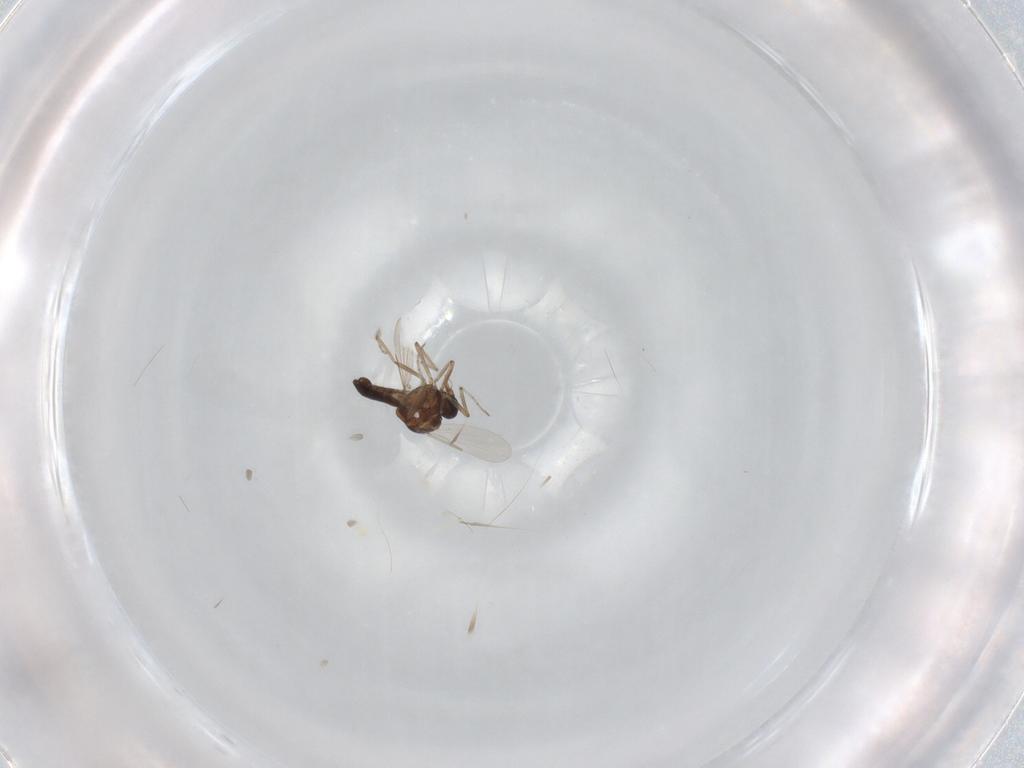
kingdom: Animalia
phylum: Arthropoda
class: Insecta
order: Diptera
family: Ceratopogonidae
